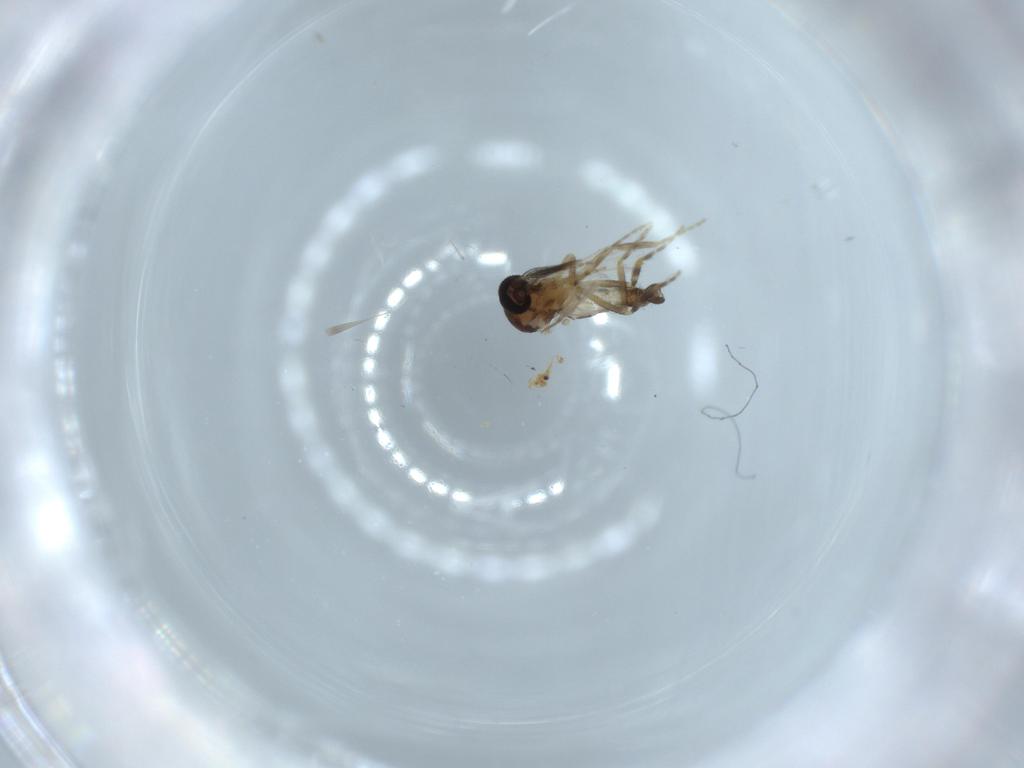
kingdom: Animalia
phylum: Arthropoda
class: Insecta
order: Diptera
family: Ceratopogonidae
